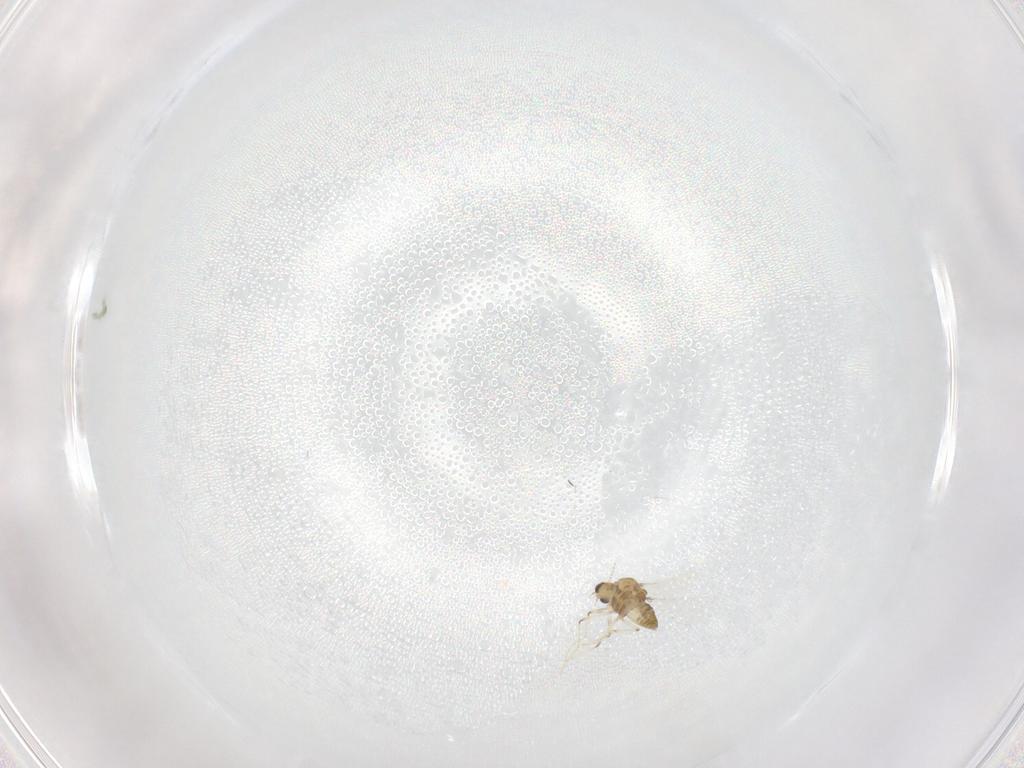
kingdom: Animalia
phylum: Arthropoda
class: Insecta
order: Diptera
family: Chironomidae
